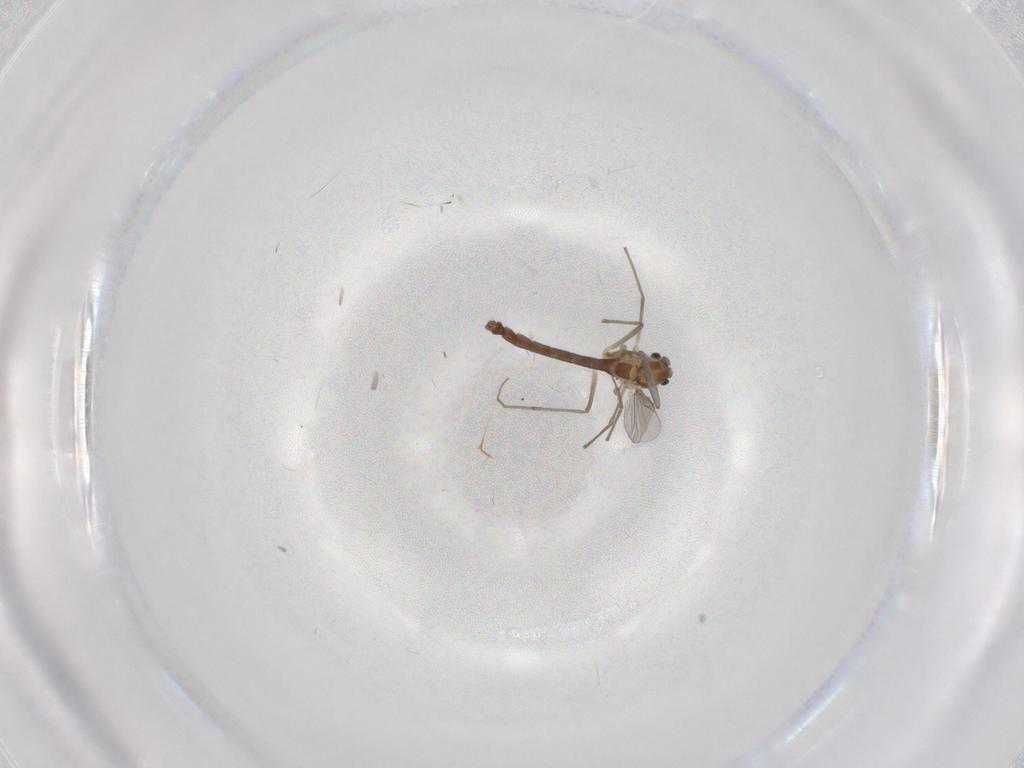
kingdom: Animalia
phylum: Arthropoda
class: Insecta
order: Diptera
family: Chironomidae
